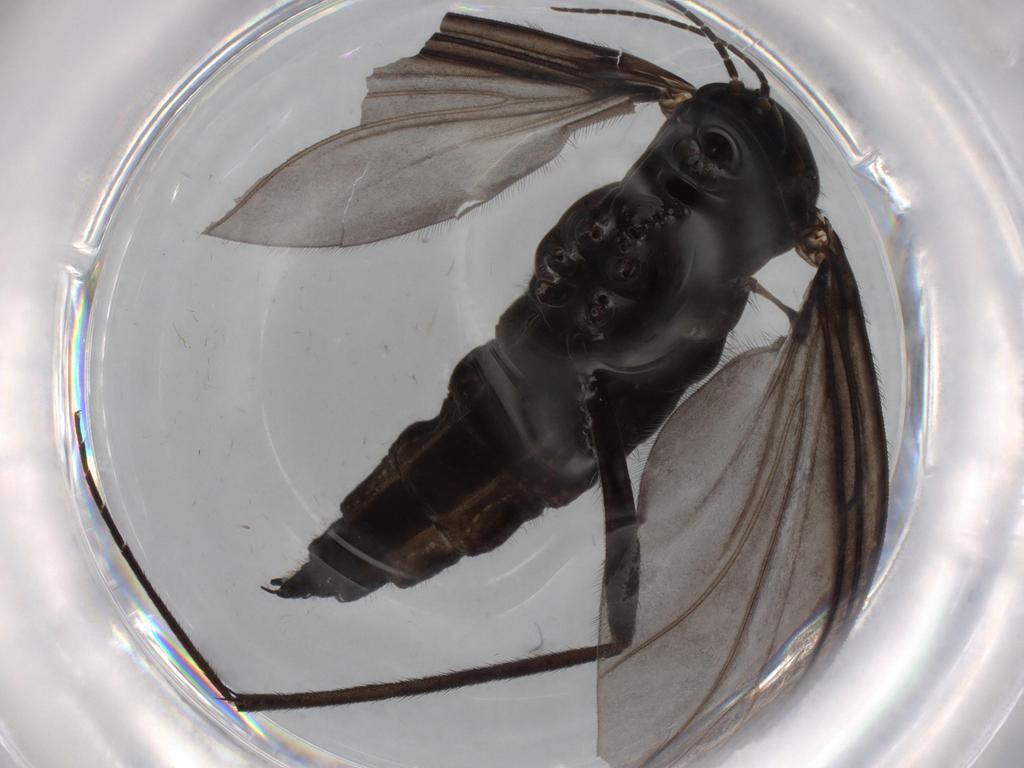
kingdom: Animalia
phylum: Arthropoda
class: Insecta
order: Diptera
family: Sciaridae
